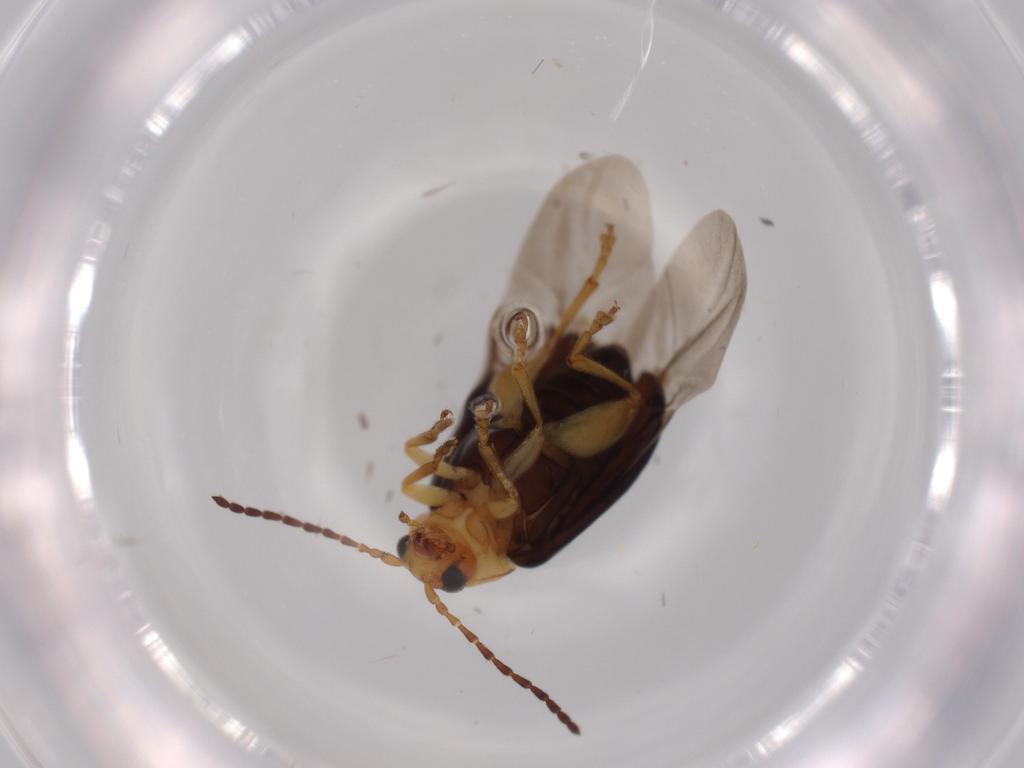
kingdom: Animalia
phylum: Arthropoda
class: Insecta
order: Coleoptera
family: Chrysomelidae
